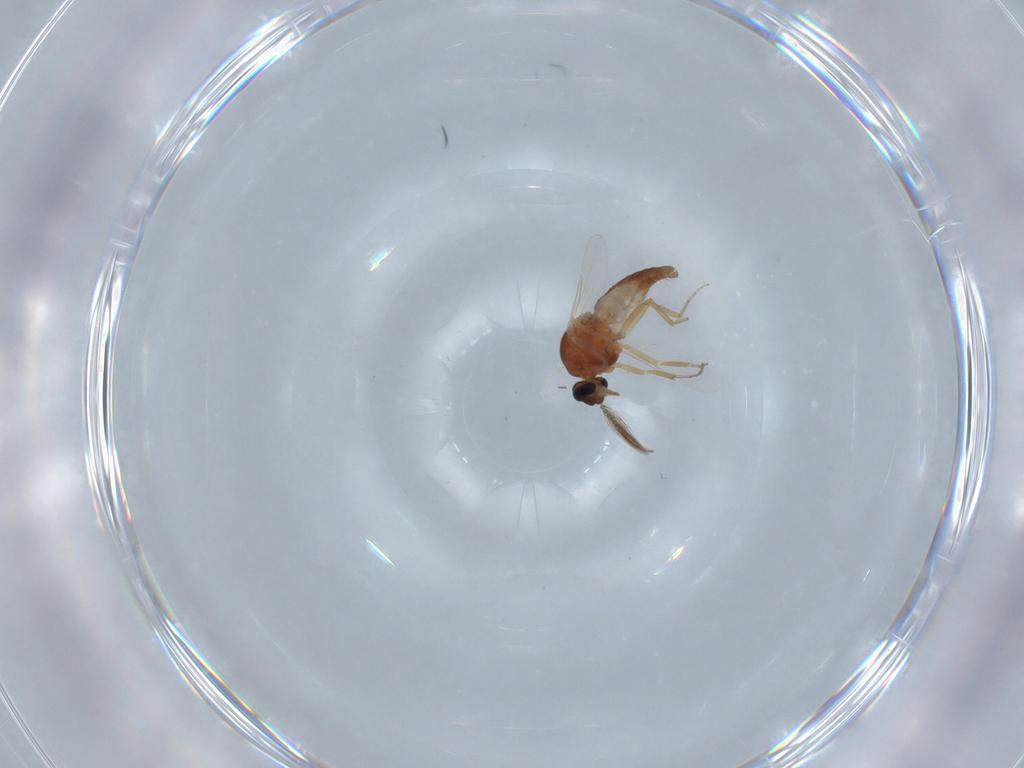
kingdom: Animalia
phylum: Arthropoda
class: Insecta
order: Diptera
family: Ceratopogonidae
